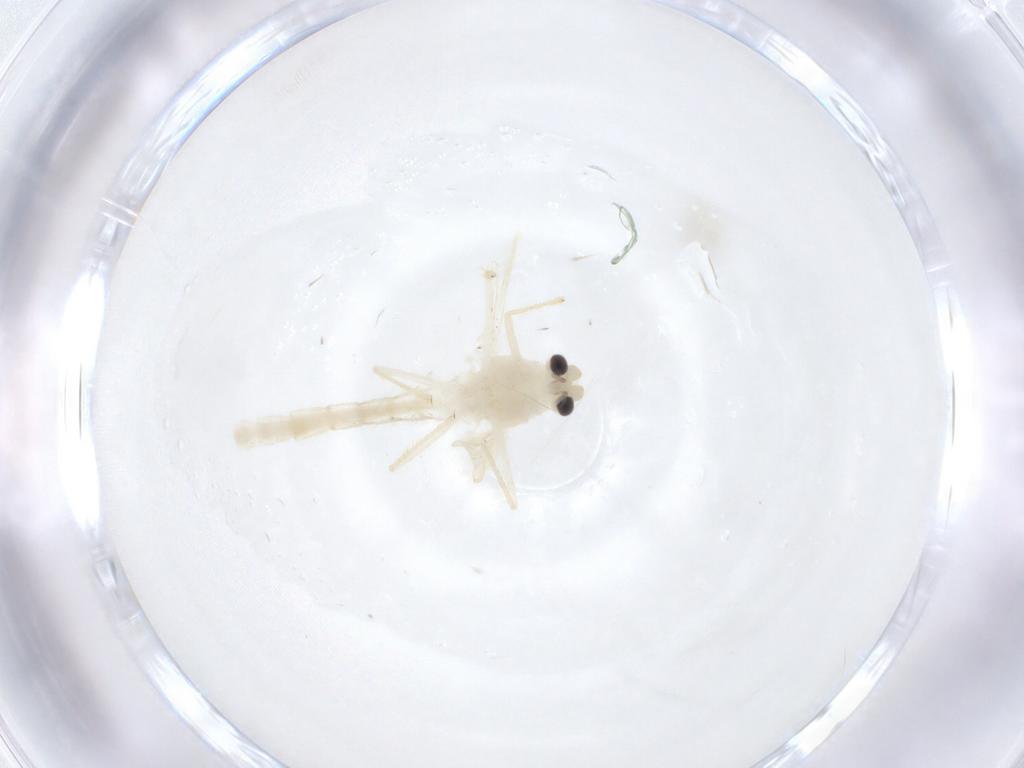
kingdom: Animalia
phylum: Arthropoda
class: Insecta
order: Diptera
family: Chironomidae
